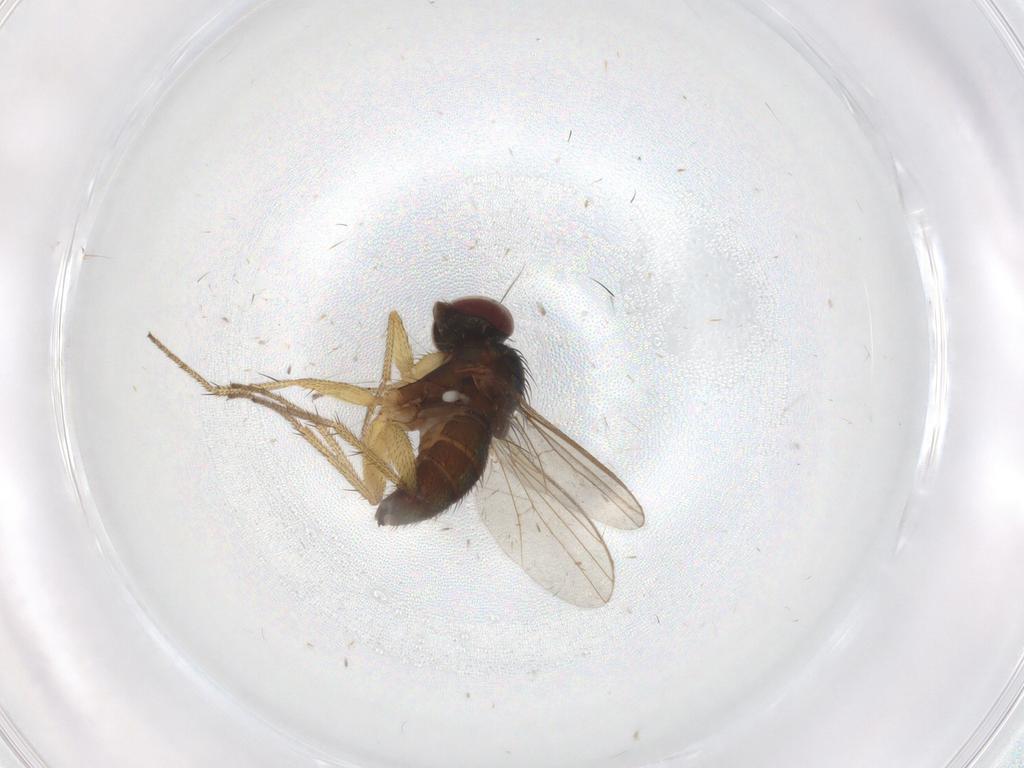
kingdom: Animalia
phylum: Arthropoda
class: Insecta
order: Diptera
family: Dolichopodidae
